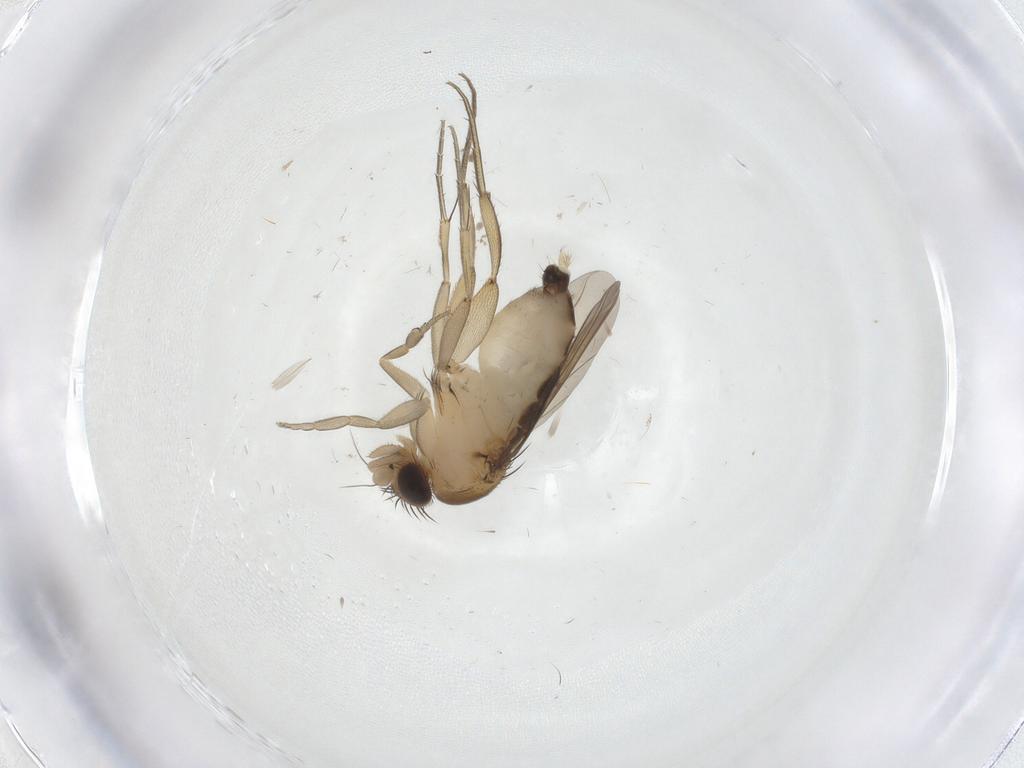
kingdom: Animalia
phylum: Arthropoda
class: Insecta
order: Diptera
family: Phoridae
